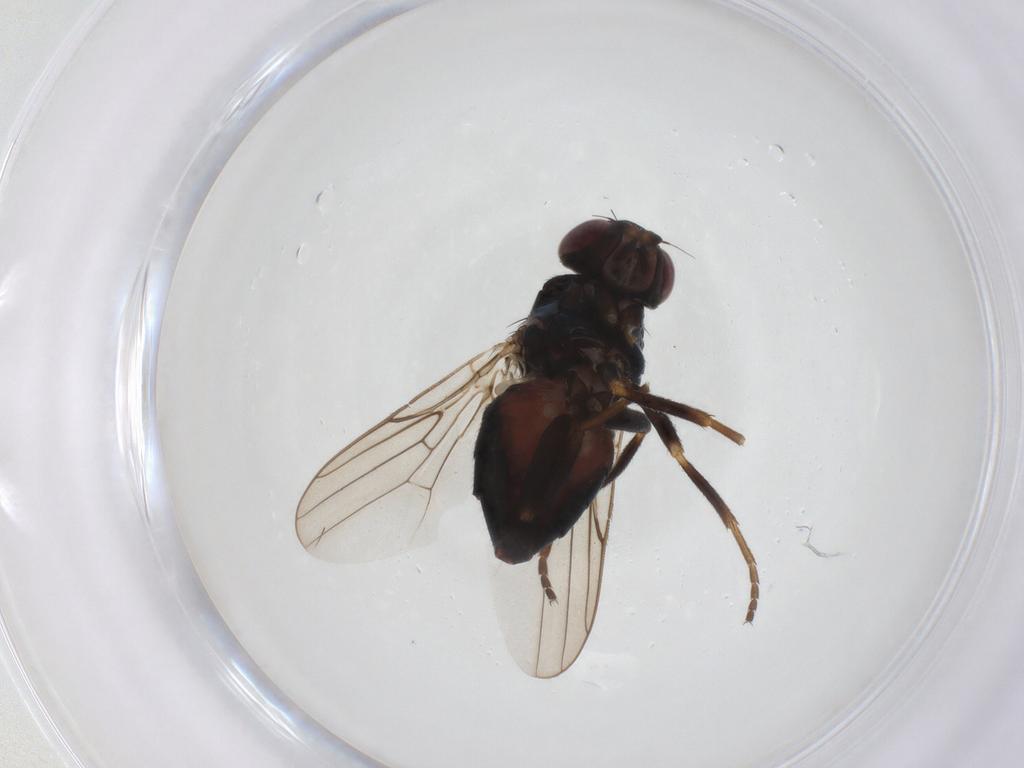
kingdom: Animalia
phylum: Arthropoda
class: Insecta
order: Diptera
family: Chloropidae
